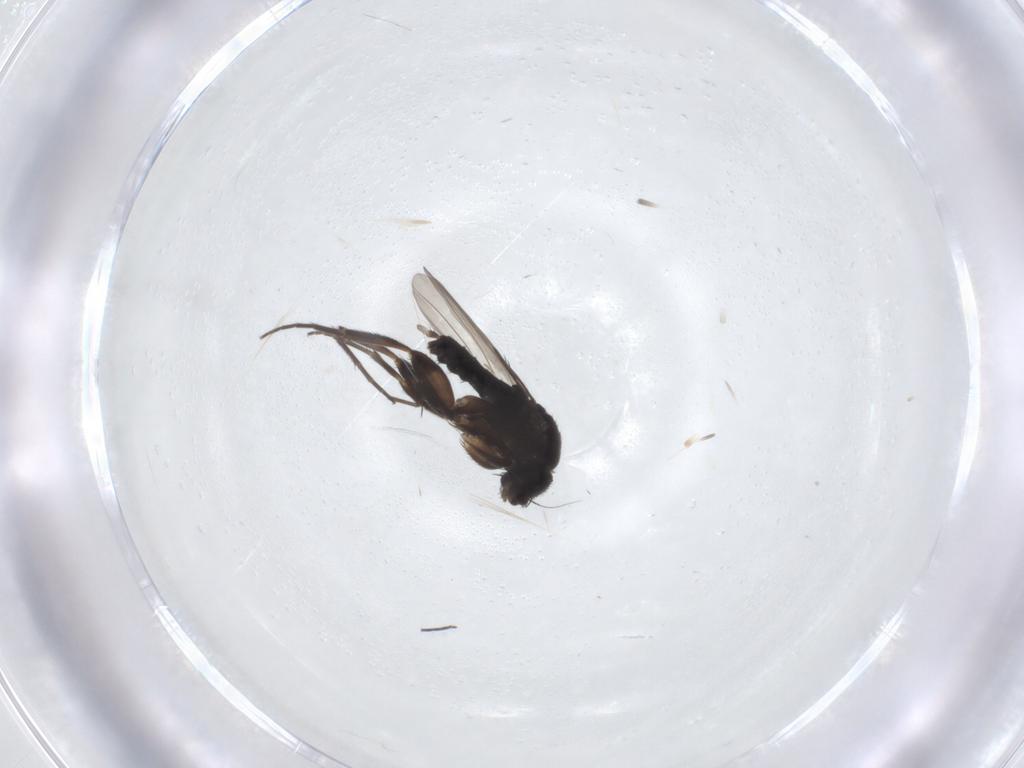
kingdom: Animalia
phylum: Arthropoda
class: Insecta
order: Diptera
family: Phoridae
